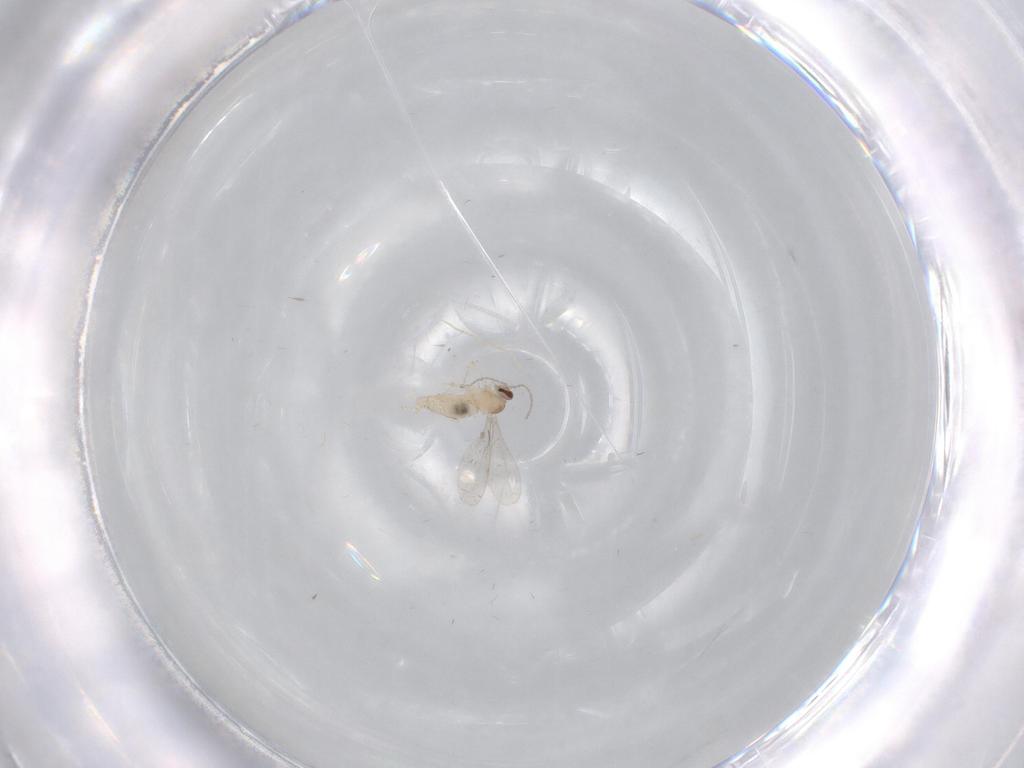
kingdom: Animalia
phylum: Arthropoda
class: Insecta
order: Diptera
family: Cecidomyiidae
